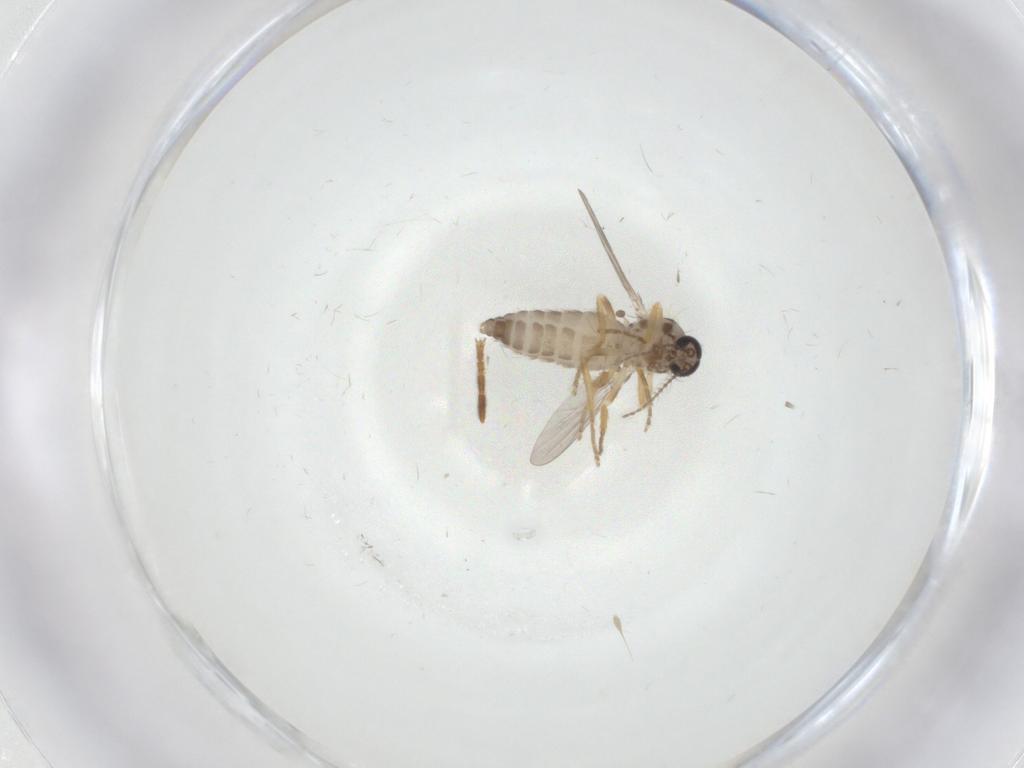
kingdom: Animalia
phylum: Arthropoda
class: Insecta
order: Diptera
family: Ceratopogonidae
